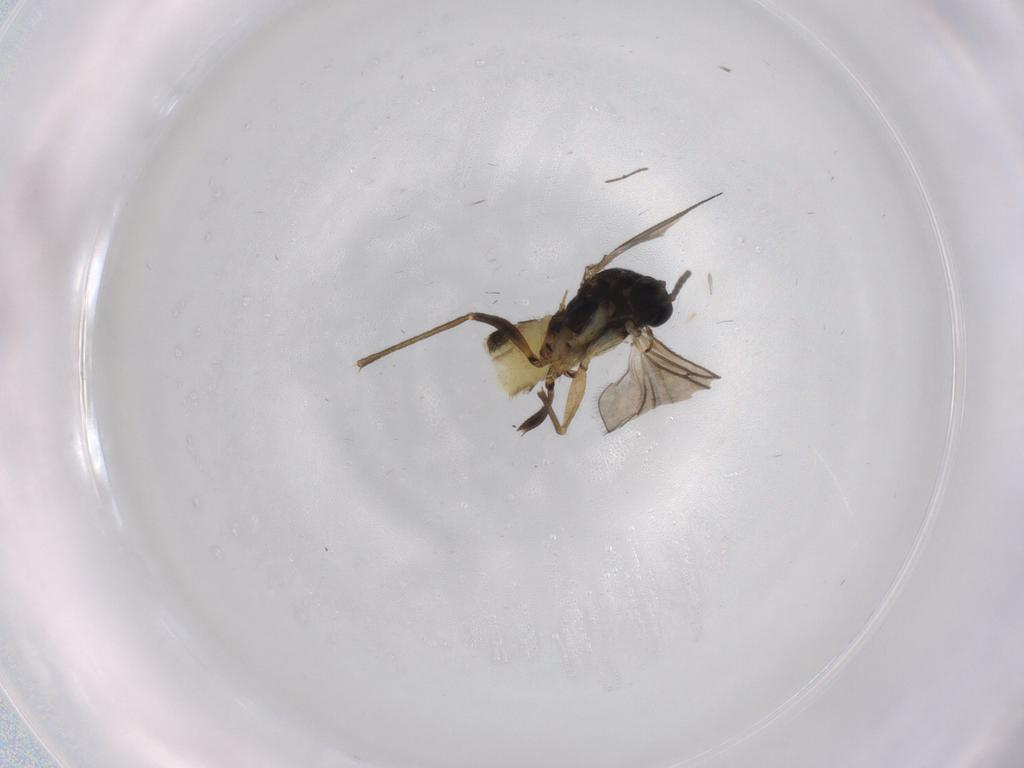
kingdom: Animalia
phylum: Arthropoda
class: Insecta
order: Diptera
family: Sciaridae
